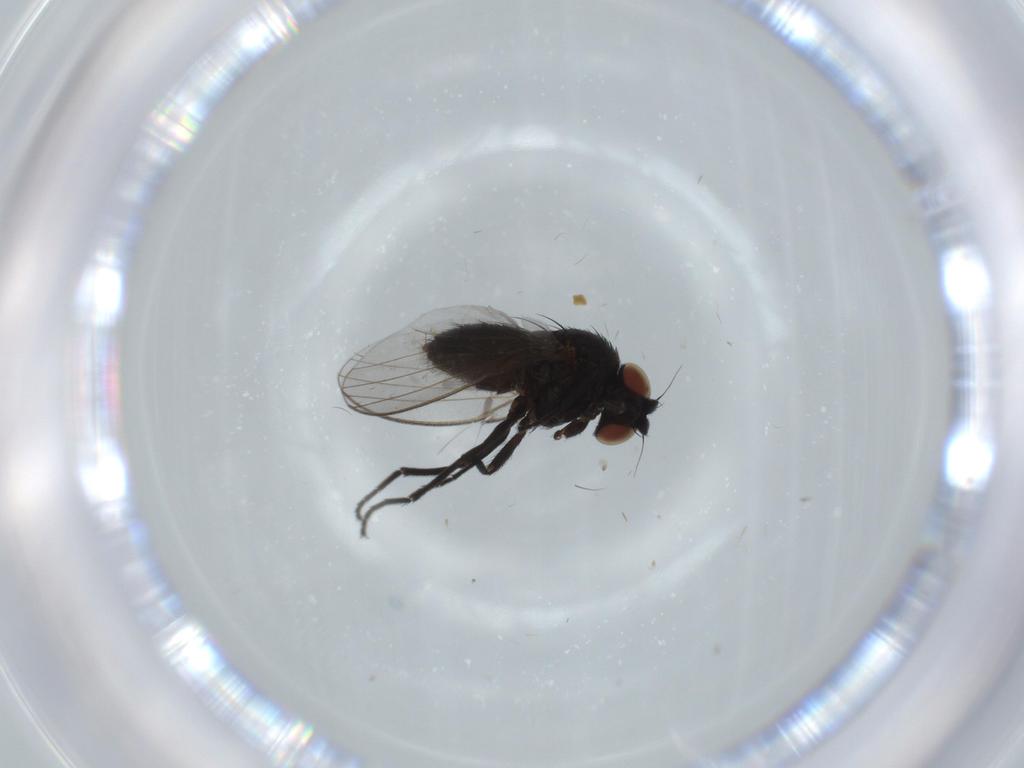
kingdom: Animalia
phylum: Arthropoda
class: Insecta
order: Diptera
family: Milichiidae
